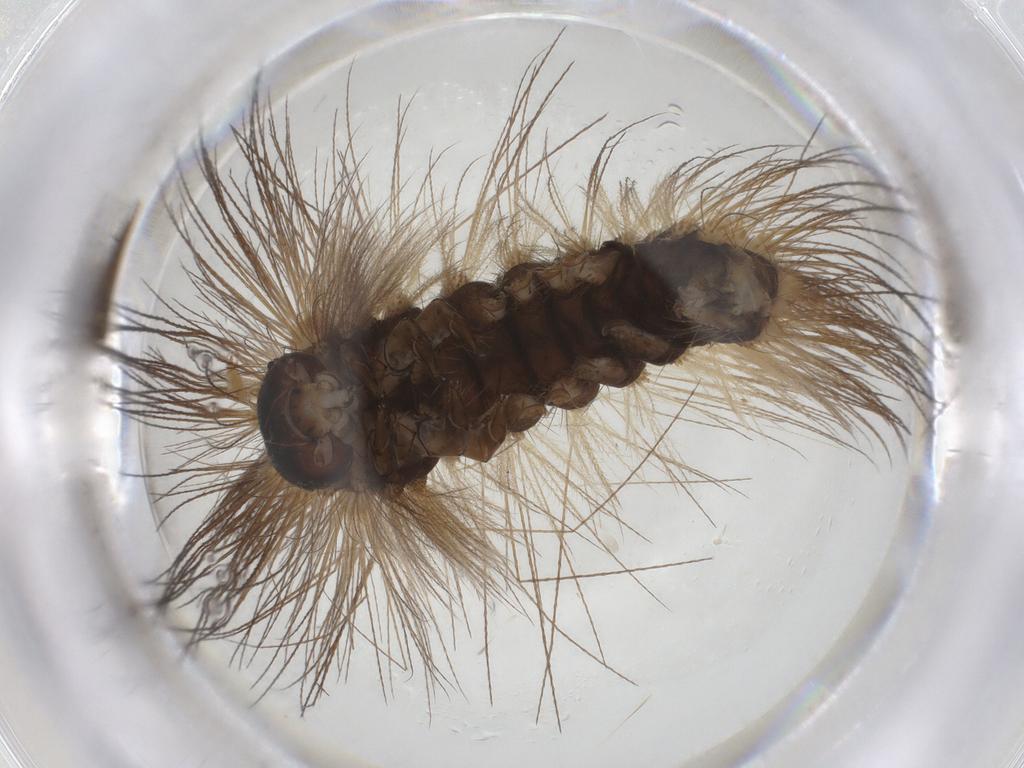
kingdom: Animalia
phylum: Arthropoda
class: Insecta
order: Lepidoptera
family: Erebidae
